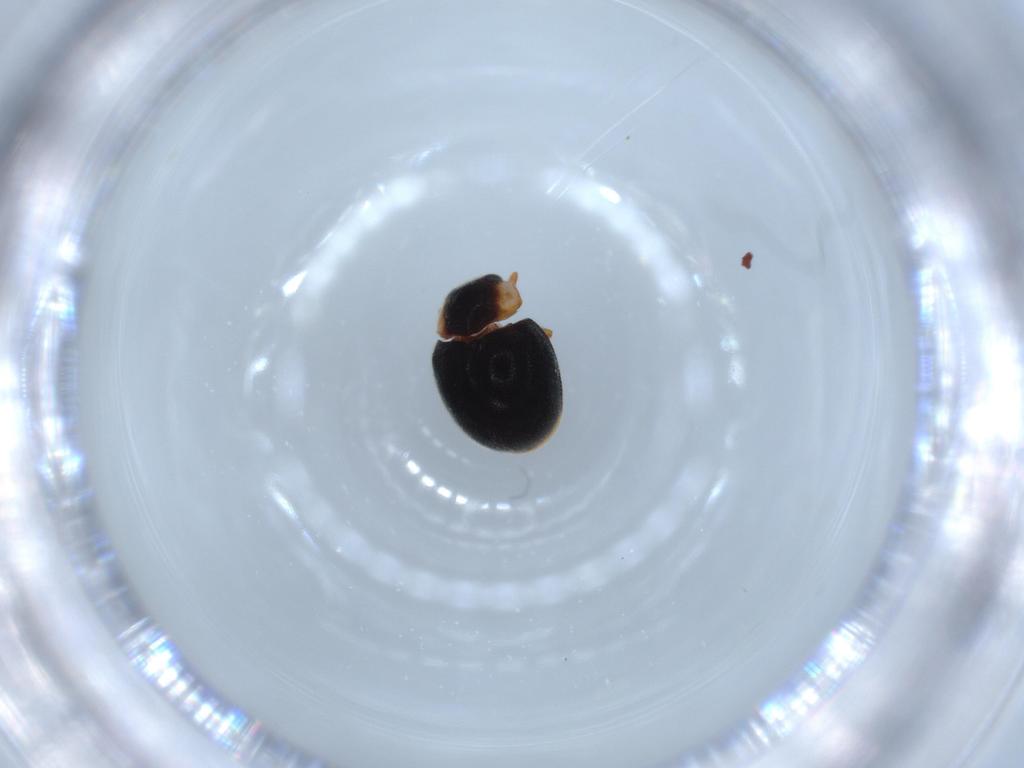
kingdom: Animalia
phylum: Arthropoda
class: Insecta
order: Coleoptera
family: Coccinellidae
